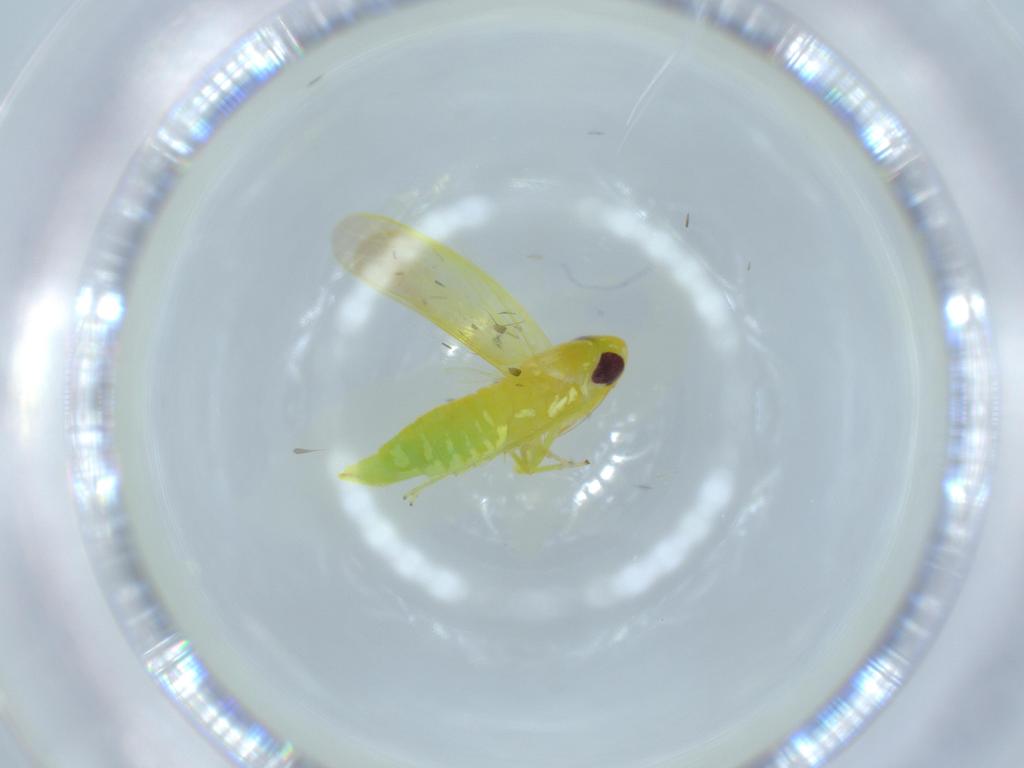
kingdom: Animalia
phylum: Arthropoda
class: Insecta
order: Hemiptera
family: Cicadellidae
